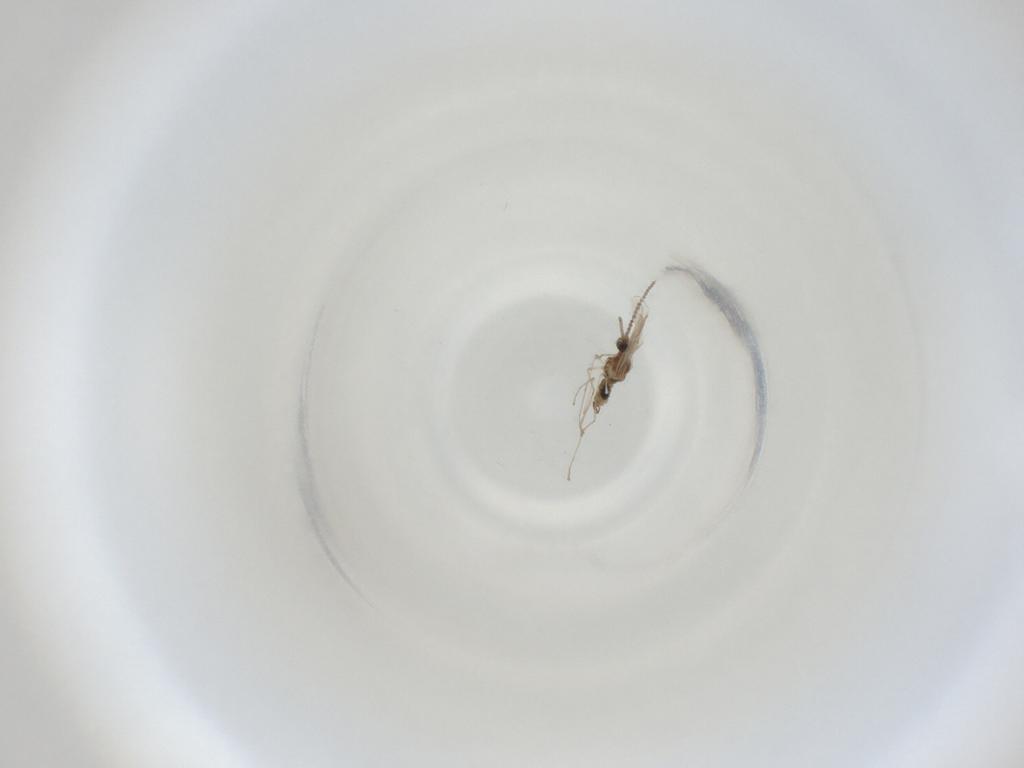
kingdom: Animalia
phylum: Arthropoda
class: Insecta
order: Diptera
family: Cecidomyiidae
